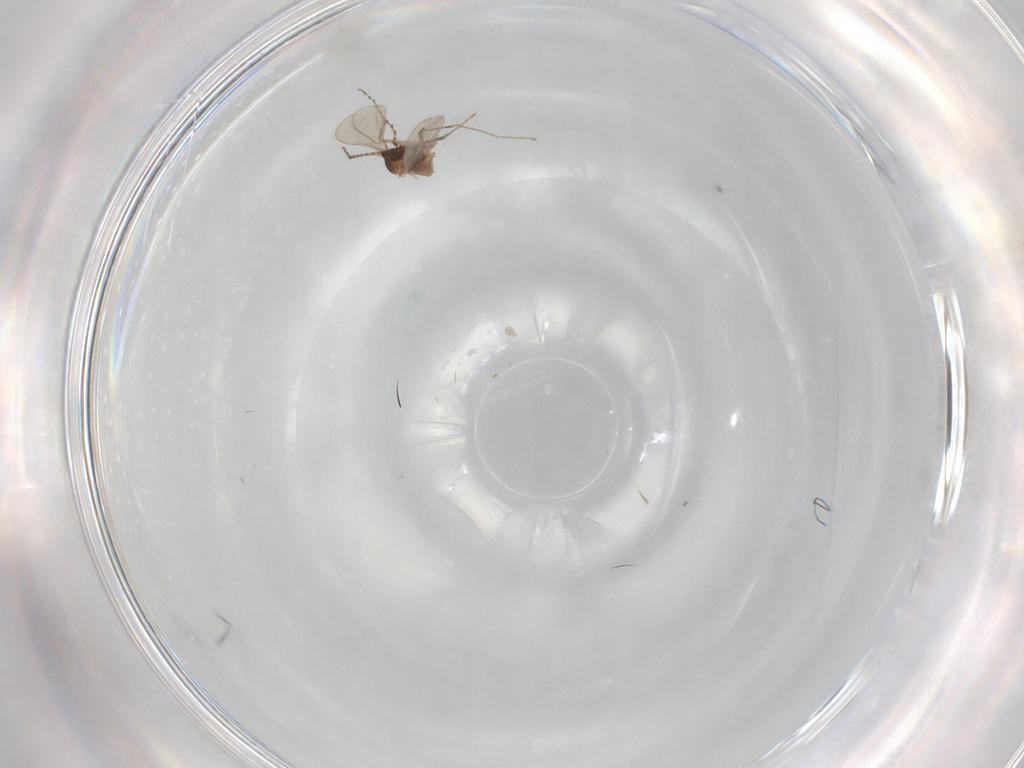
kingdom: Animalia
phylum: Arthropoda
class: Insecta
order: Diptera
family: Cecidomyiidae
